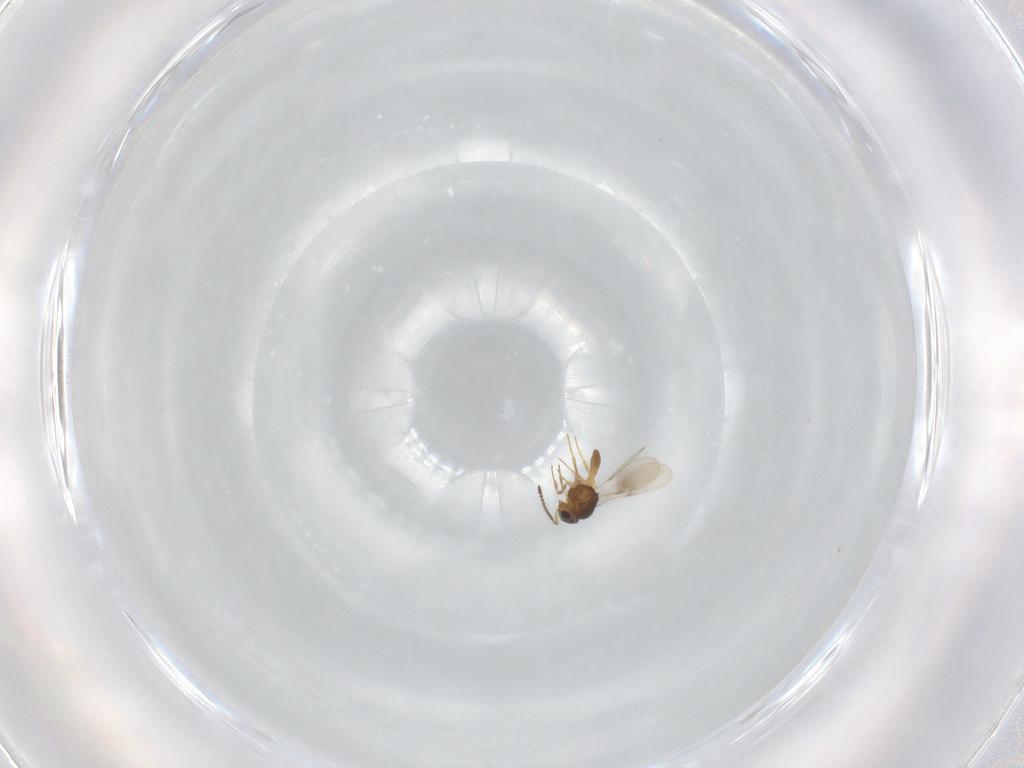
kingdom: Animalia
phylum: Arthropoda
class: Insecta
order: Hymenoptera
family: Scelionidae
